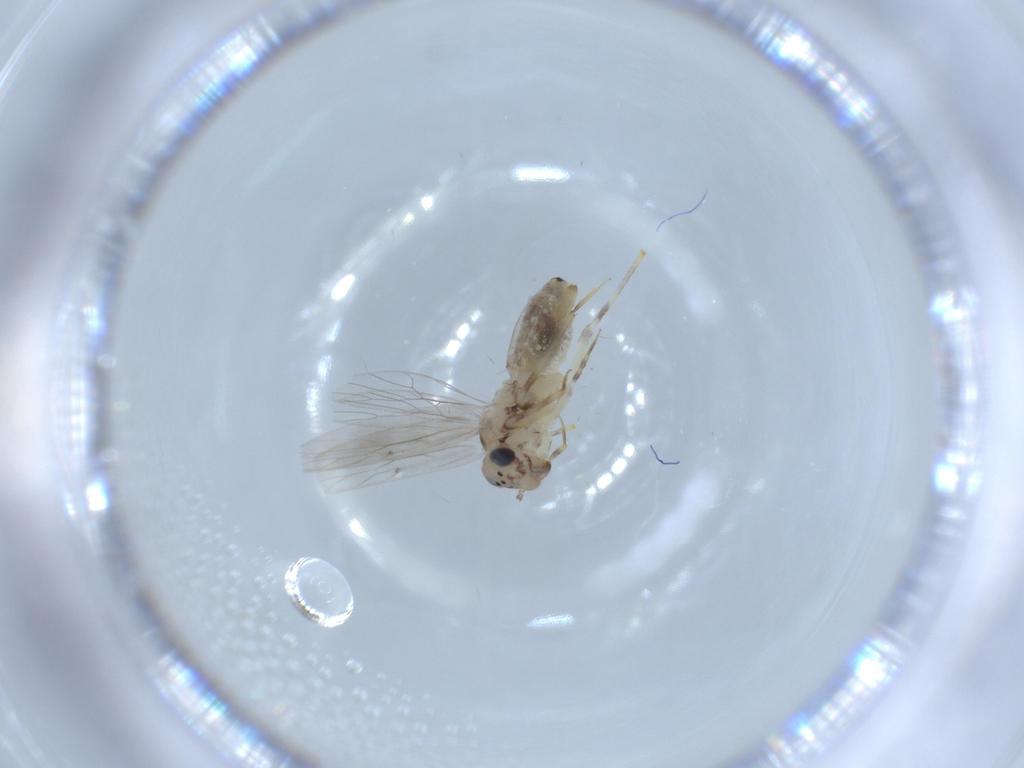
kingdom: Animalia
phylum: Arthropoda
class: Insecta
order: Psocodea
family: Lepidopsocidae
